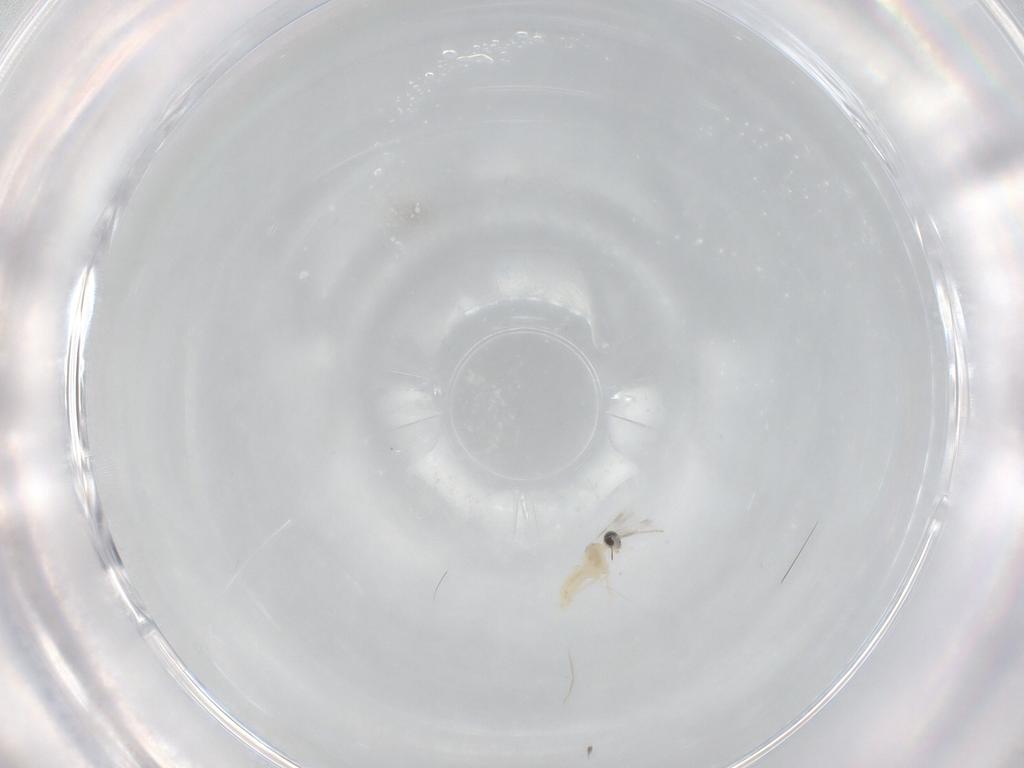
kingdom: Animalia
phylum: Arthropoda
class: Insecta
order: Diptera
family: Cecidomyiidae
